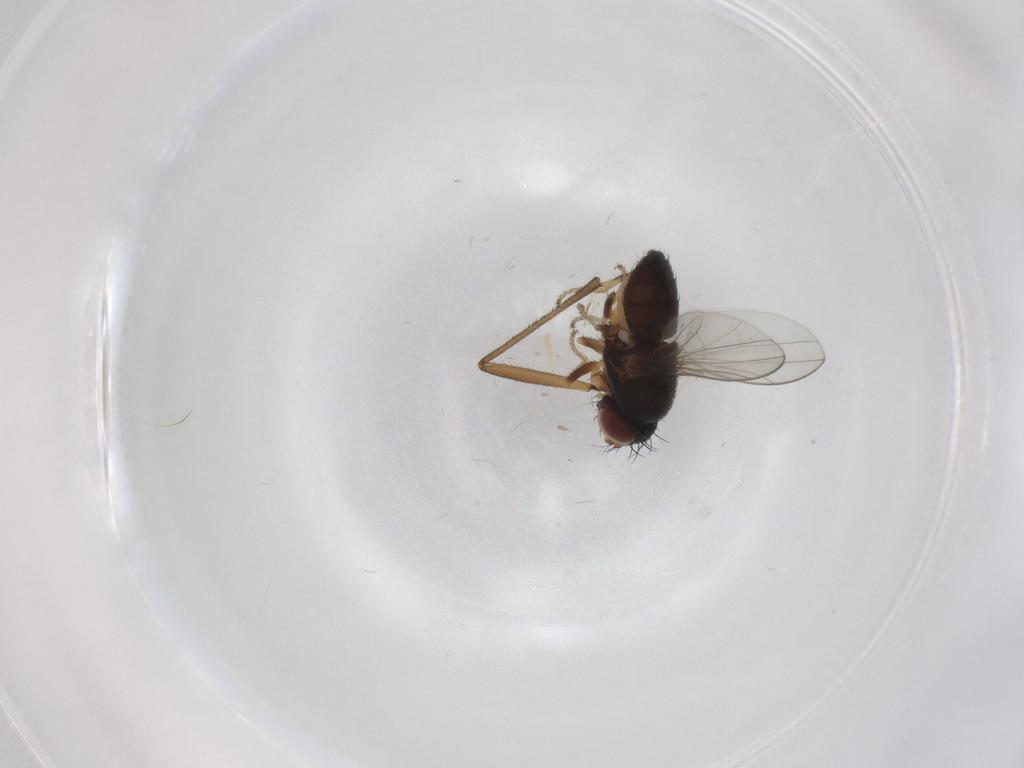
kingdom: Animalia
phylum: Arthropoda
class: Insecta
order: Diptera
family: Ephydridae
